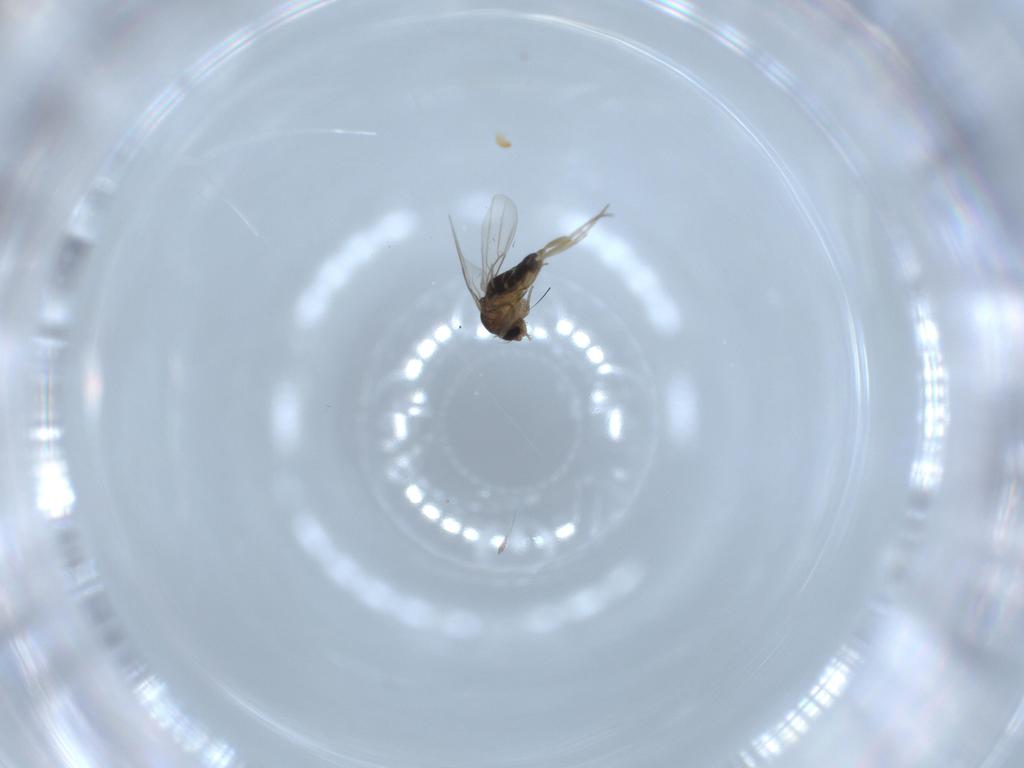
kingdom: Animalia
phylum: Arthropoda
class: Insecta
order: Diptera
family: Phoridae
